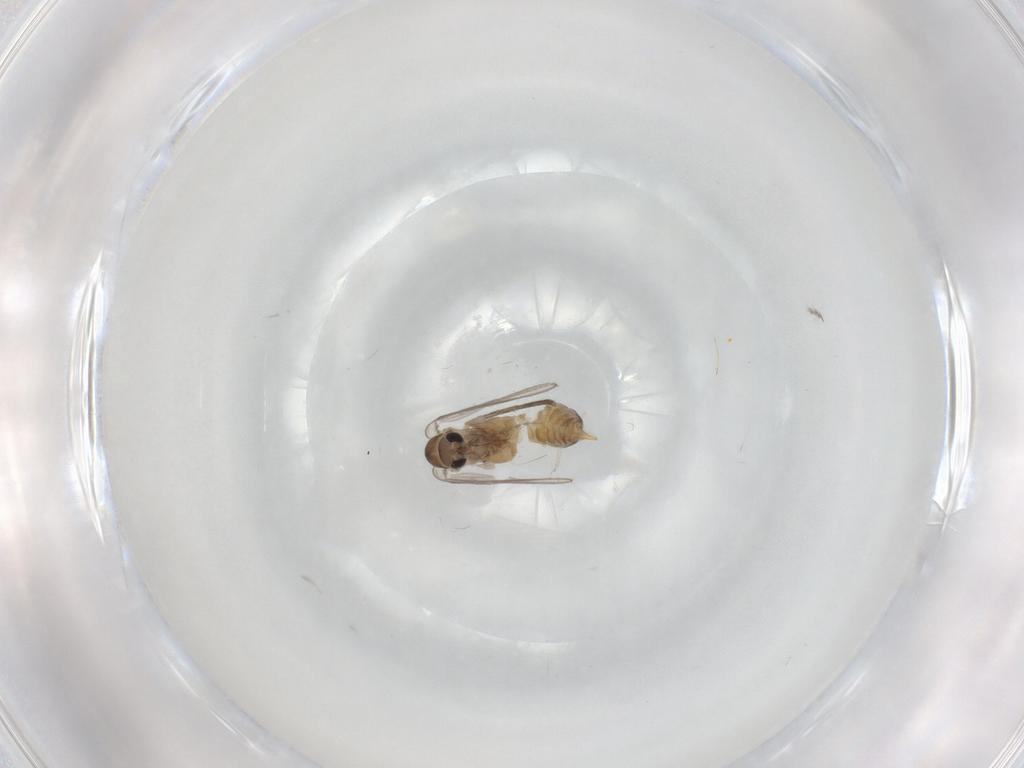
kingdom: Animalia
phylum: Arthropoda
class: Insecta
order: Diptera
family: Cecidomyiidae
